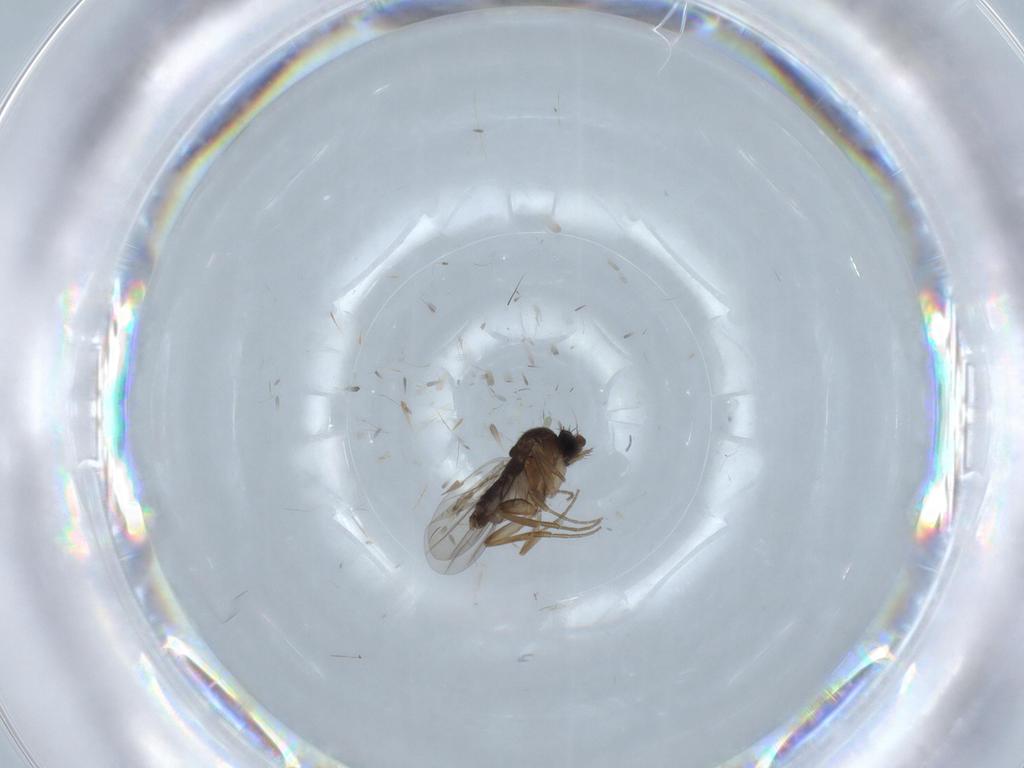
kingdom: Animalia
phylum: Arthropoda
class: Insecta
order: Diptera
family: Phoridae
